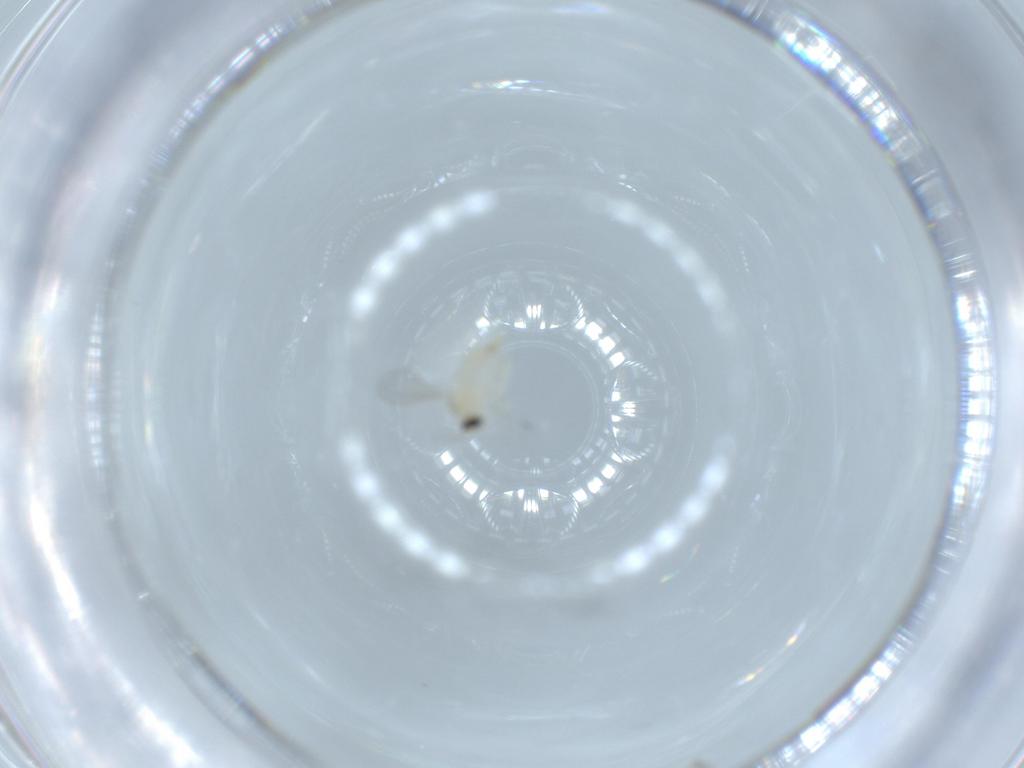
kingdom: Animalia
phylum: Arthropoda
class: Insecta
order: Diptera
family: Cecidomyiidae
